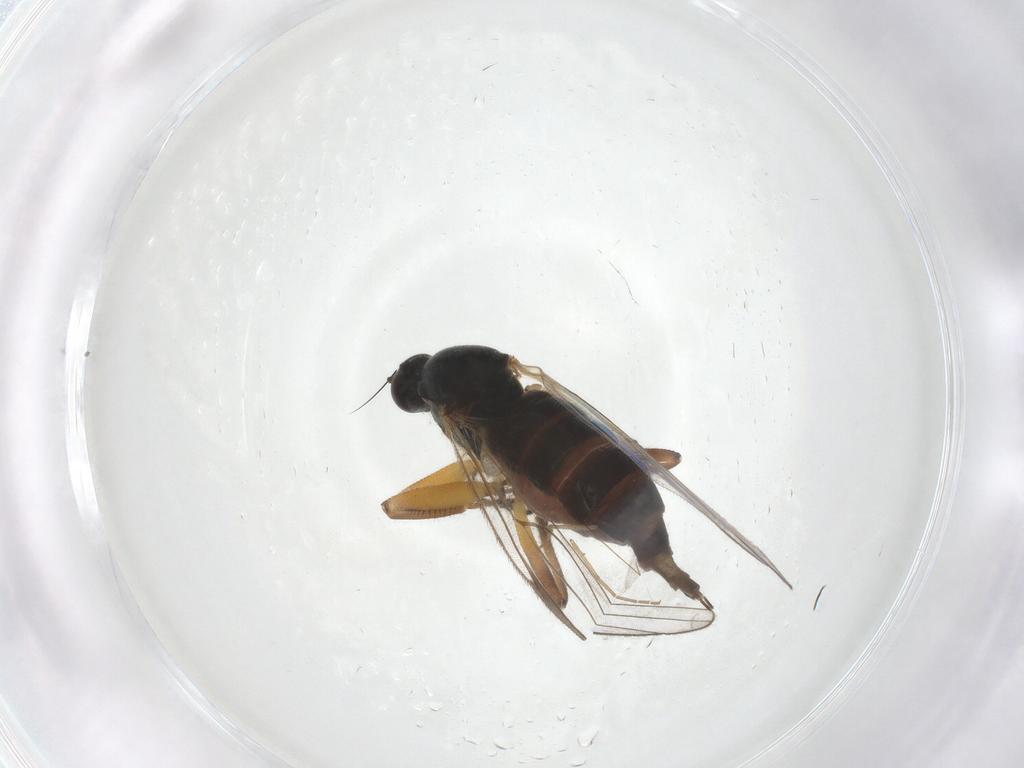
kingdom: Animalia
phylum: Arthropoda
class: Insecta
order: Diptera
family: Hybotidae
